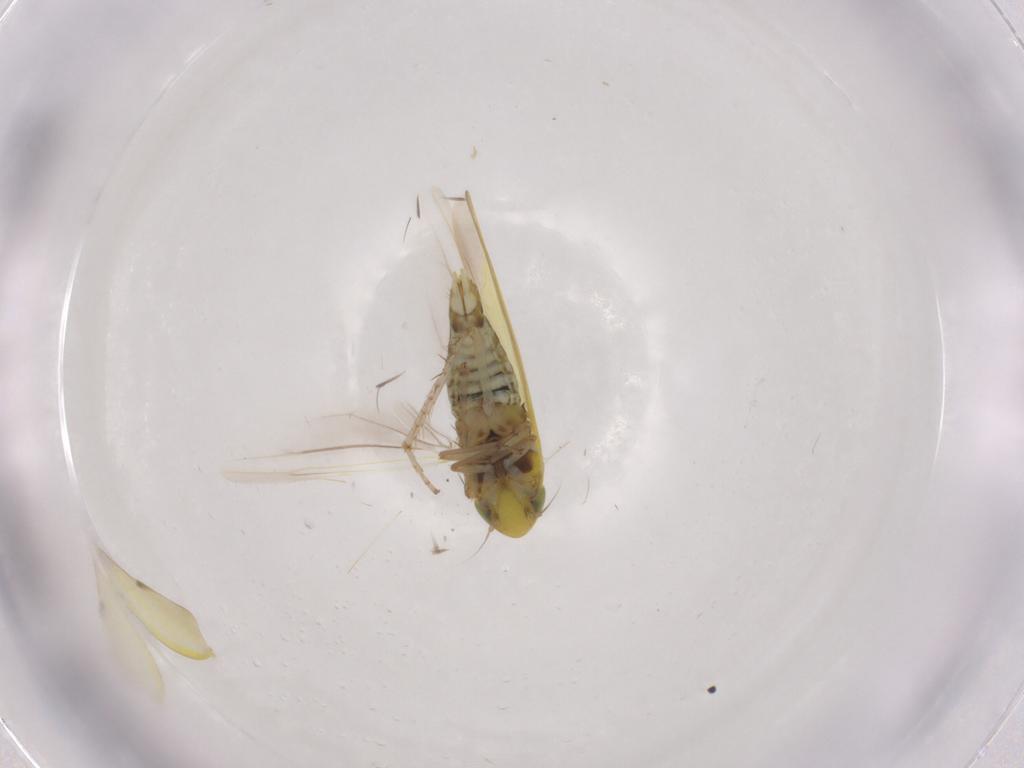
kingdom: Animalia
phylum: Arthropoda
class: Insecta
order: Hemiptera
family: Cicadellidae
